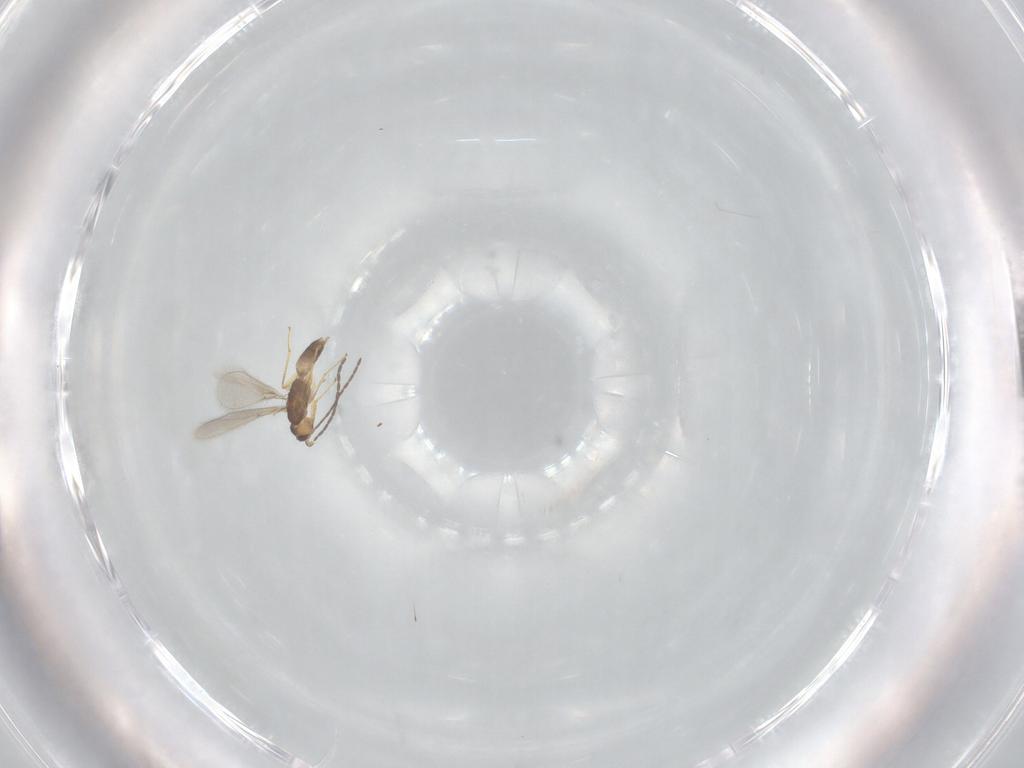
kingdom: Animalia
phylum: Arthropoda
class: Insecta
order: Hymenoptera
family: Mymaridae
